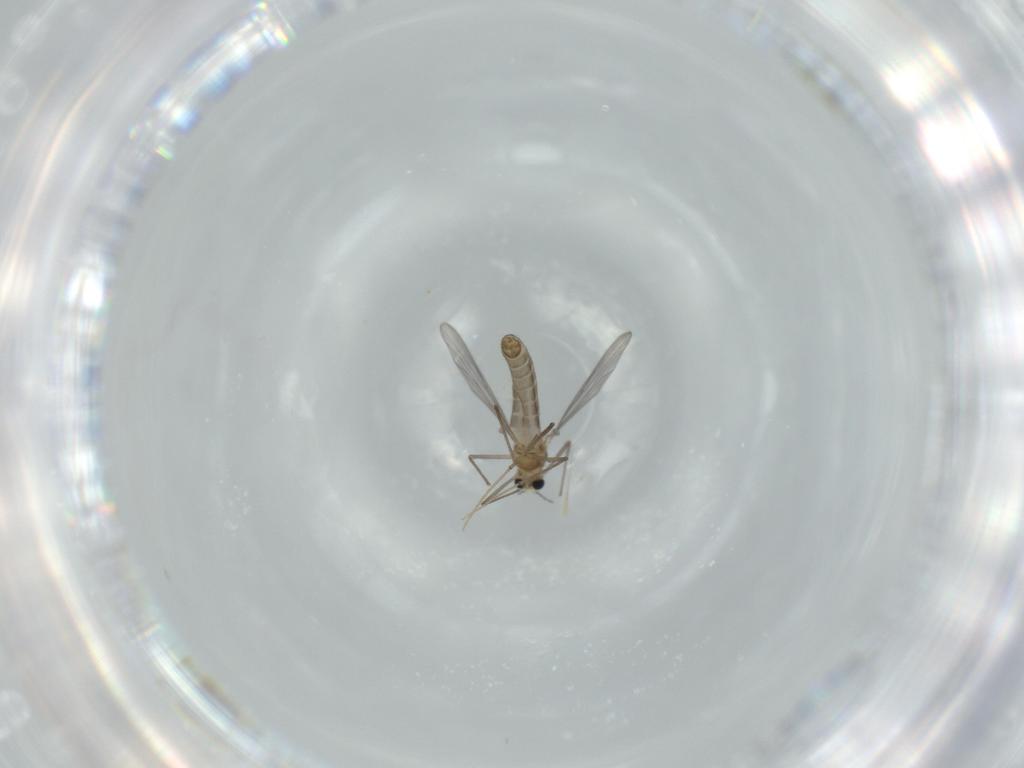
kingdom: Animalia
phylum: Arthropoda
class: Insecta
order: Diptera
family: Chironomidae
